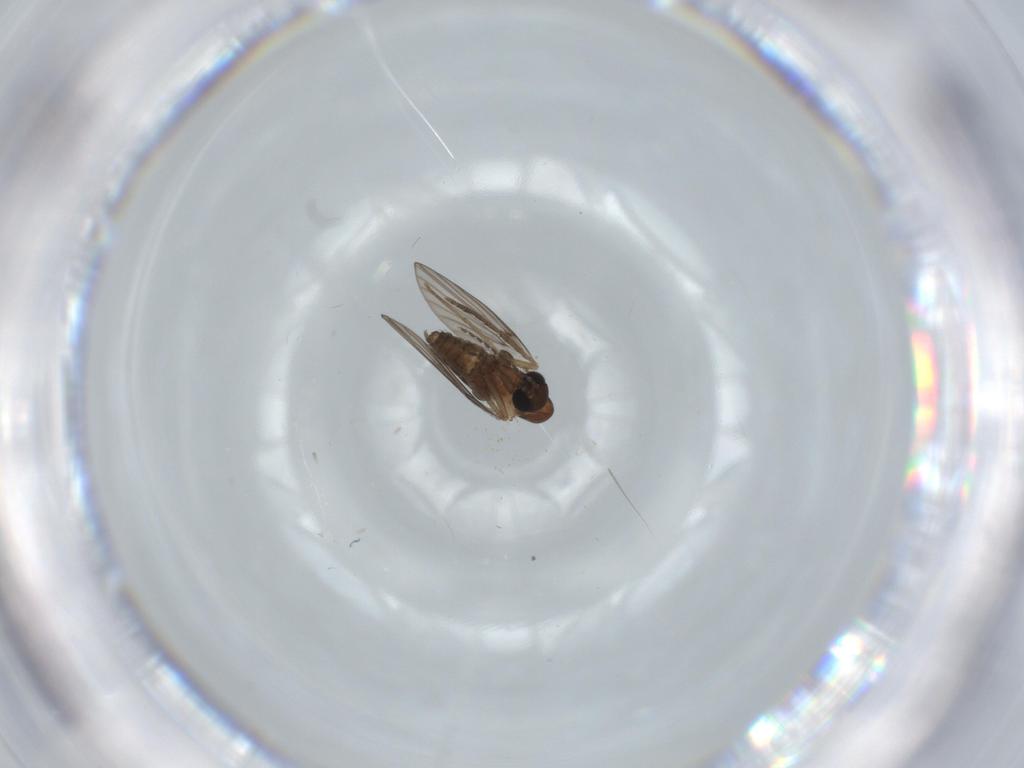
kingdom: Animalia
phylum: Arthropoda
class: Insecta
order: Diptera
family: Psychodidae
